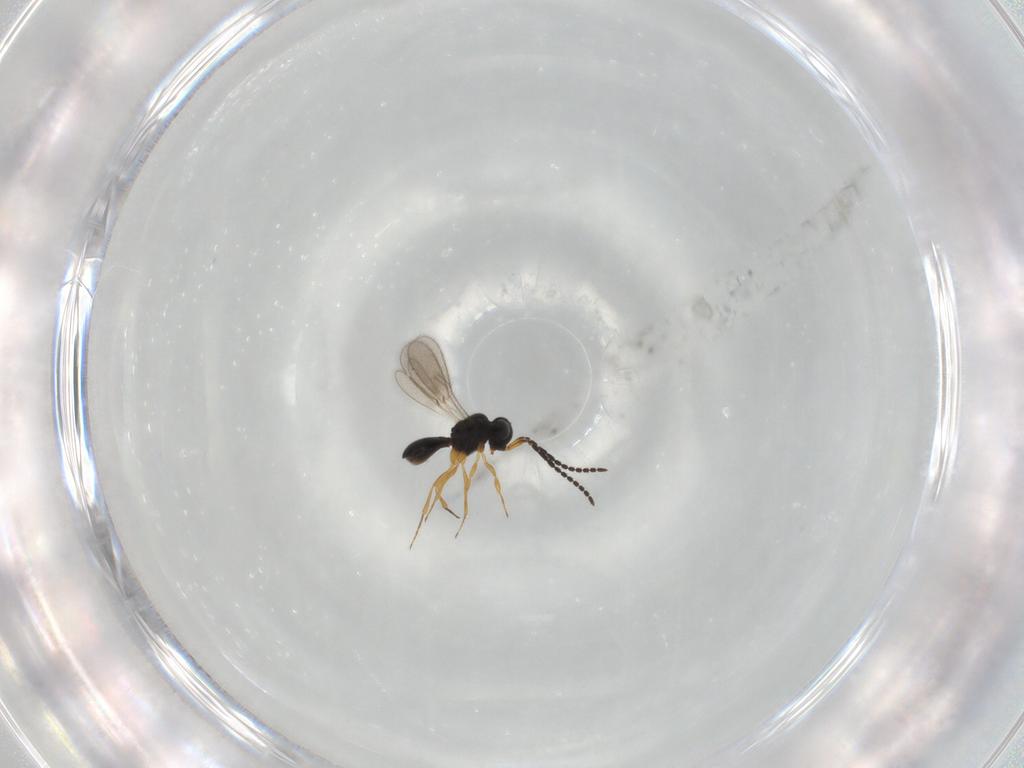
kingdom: Animalia
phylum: Arthropoda
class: Insecta
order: Hymenoptera
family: Scelionidae
